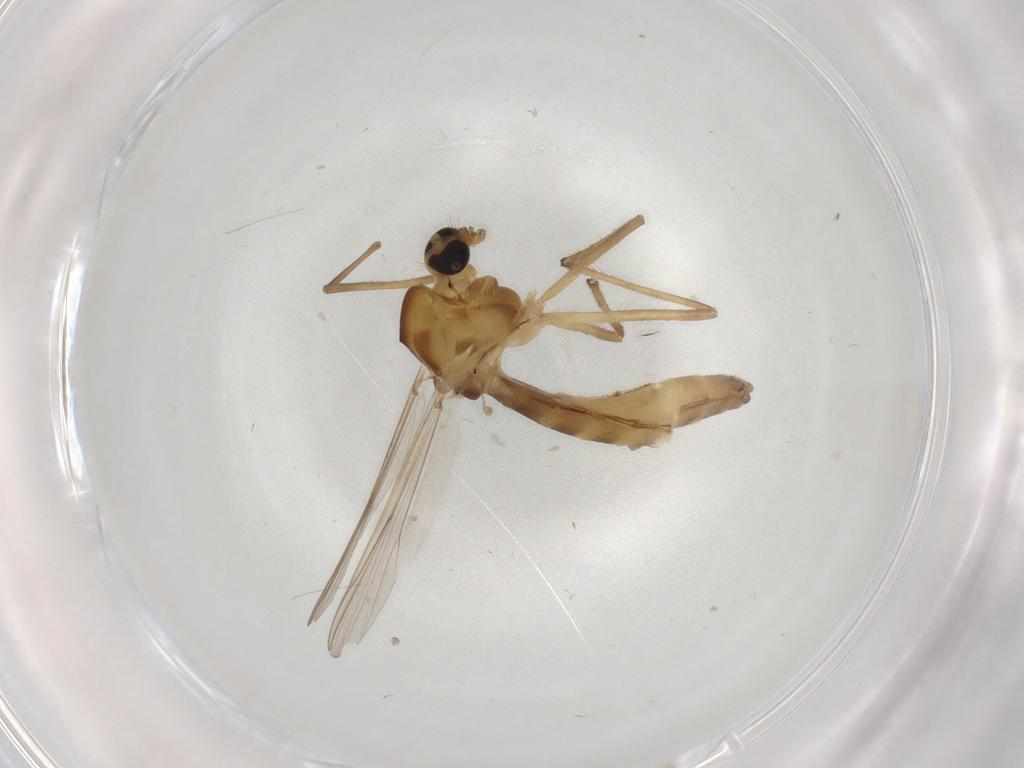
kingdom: Animalia
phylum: Arthropoda
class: Insecta
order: Diptera
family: Chironomidae
